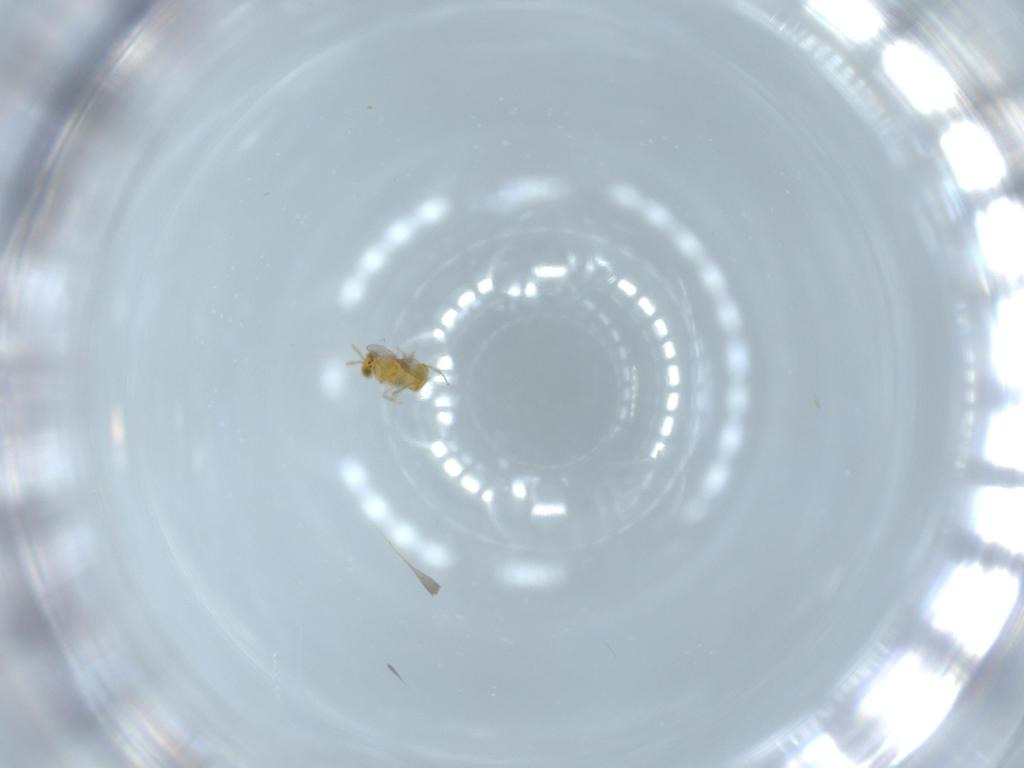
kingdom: Animalia
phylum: Arthropoda
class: Insecta
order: Hymenoptera
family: Aphelinidae
